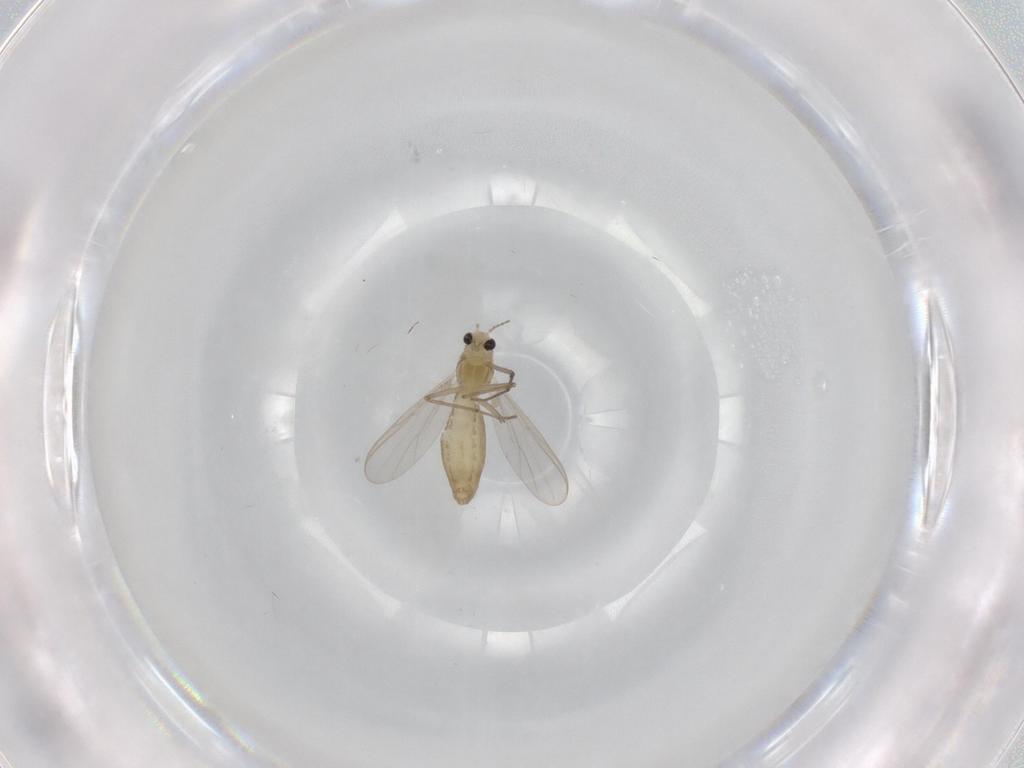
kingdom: Animalia
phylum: Arthropoda
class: Insecta
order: Diptera
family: Chironomidae
